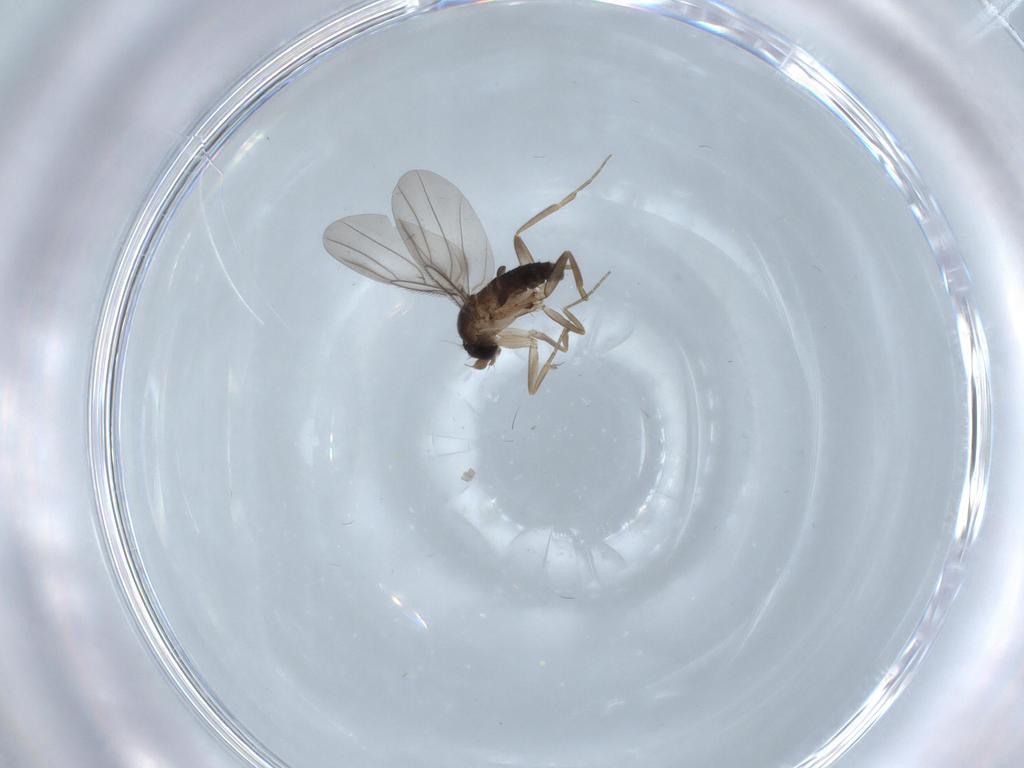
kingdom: Animalia
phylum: Arthropoda
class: Insecta
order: Diptera
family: Phoridae
